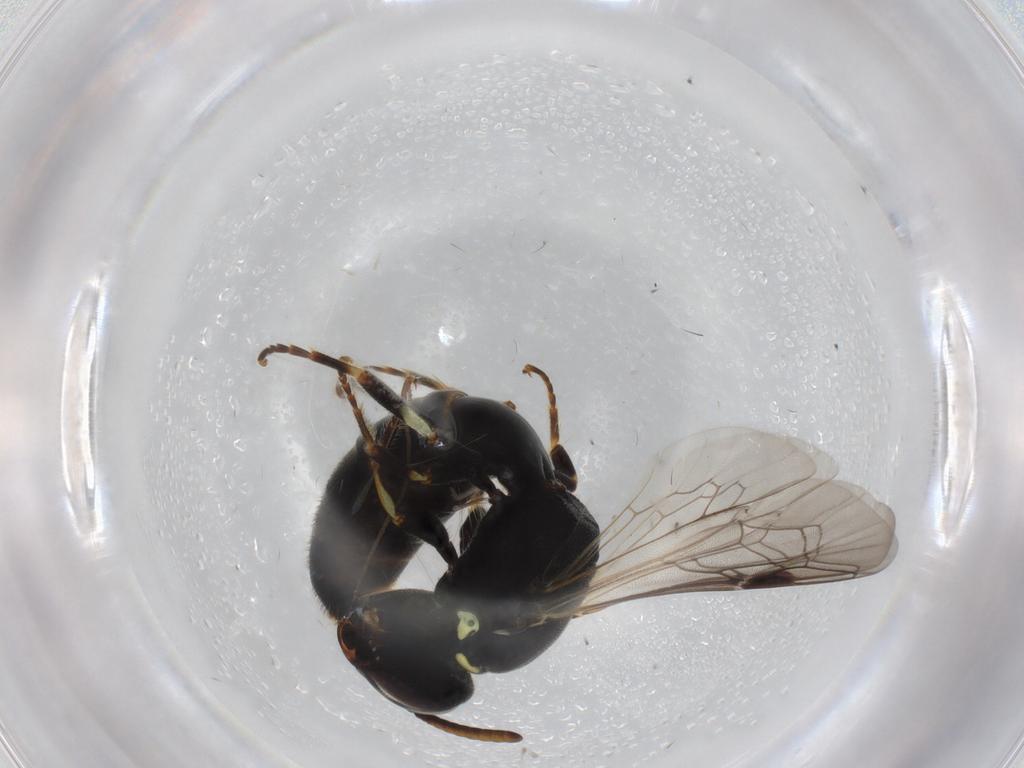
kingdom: Animalia
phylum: Arthropoda
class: Insecta
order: Hymenoptera
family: Colletidae
